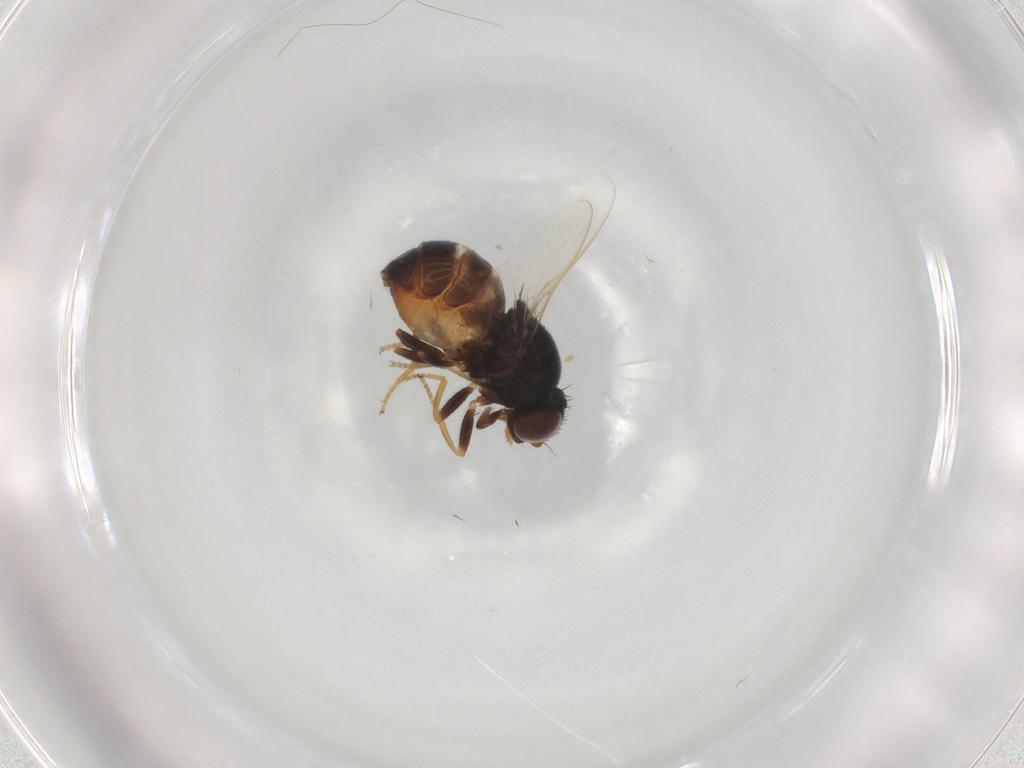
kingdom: Animalia
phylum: Arthropoda
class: Insecta
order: Diptera
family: Chloropidae
